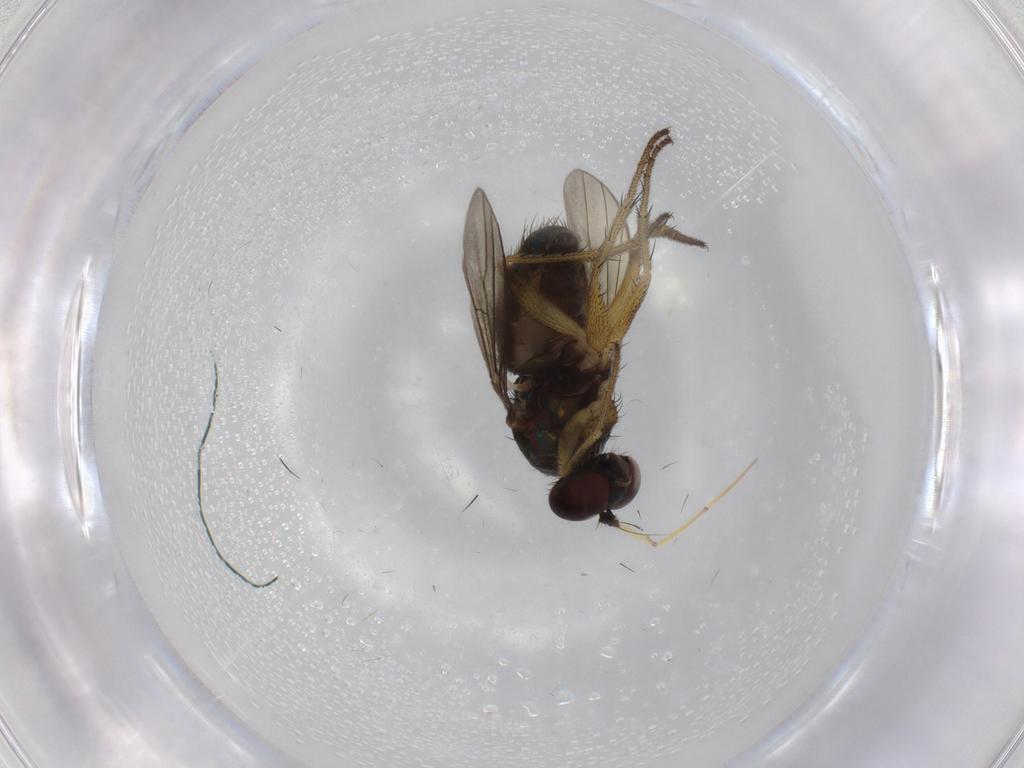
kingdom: Animalia
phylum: Arthropoda
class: Insecta
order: Diptera
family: Dolichopodidae
